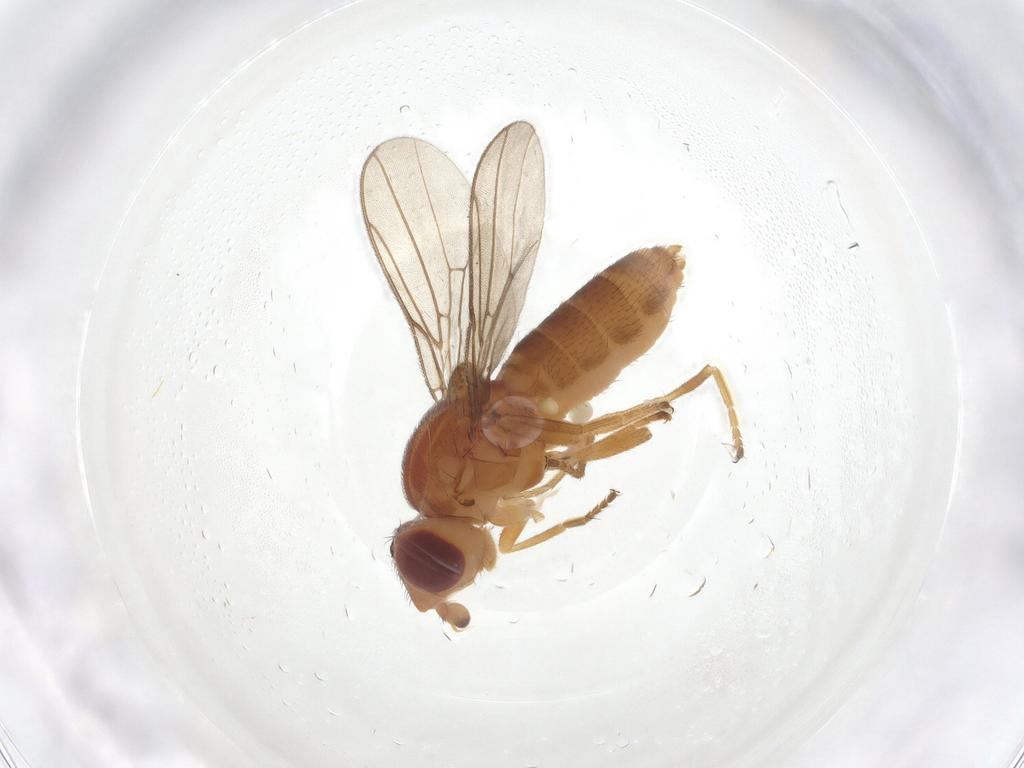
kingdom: Animalia
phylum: Arthropoda
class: Insecta
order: Diptera
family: Chloropidae
